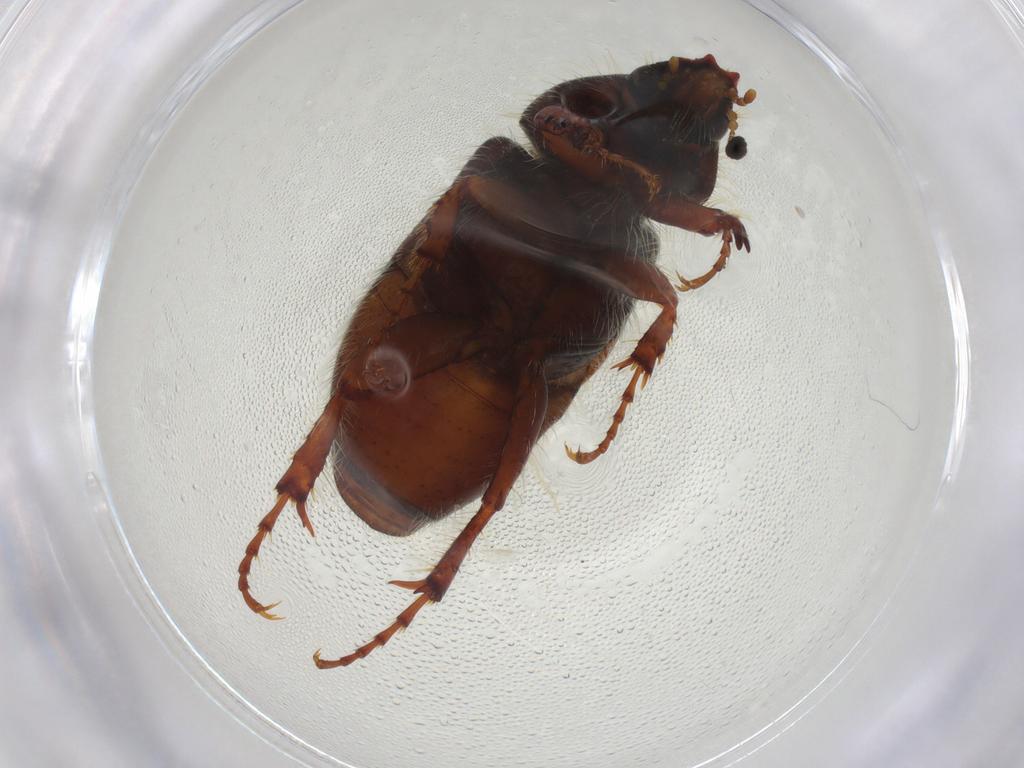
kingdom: Animalia
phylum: Arthropoda
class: Insecta
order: Coleoptera
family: Scarabaeidae
